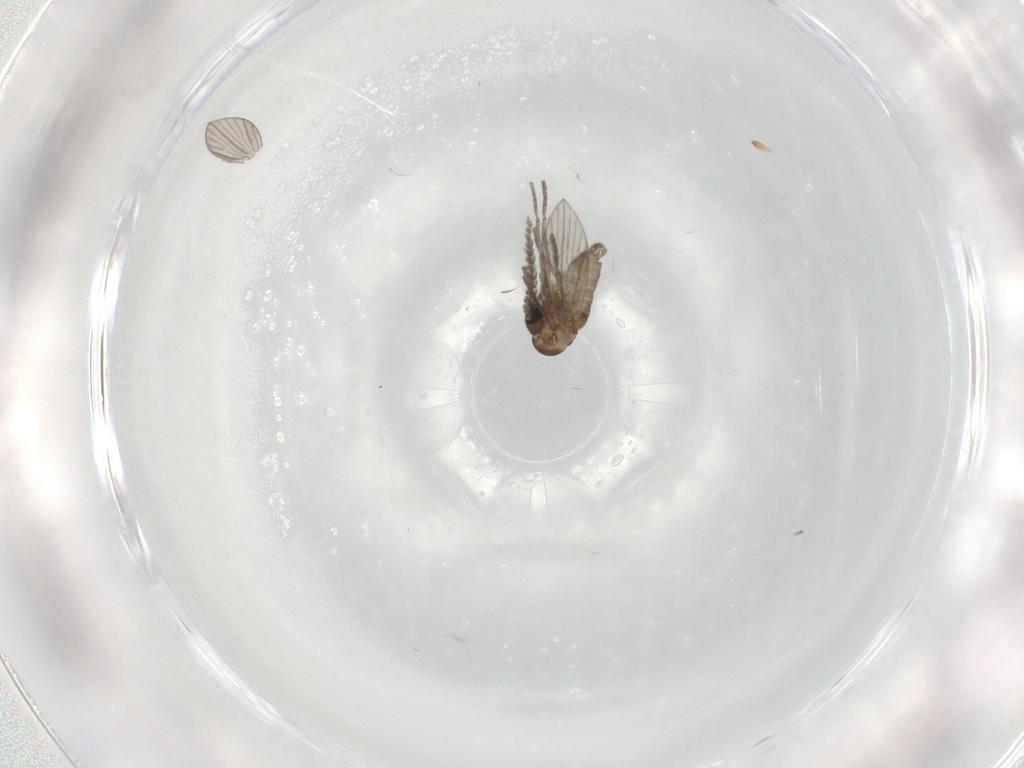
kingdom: Animalia
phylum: Arthropoda
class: Insecta
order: Diptera
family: Psychodidae
